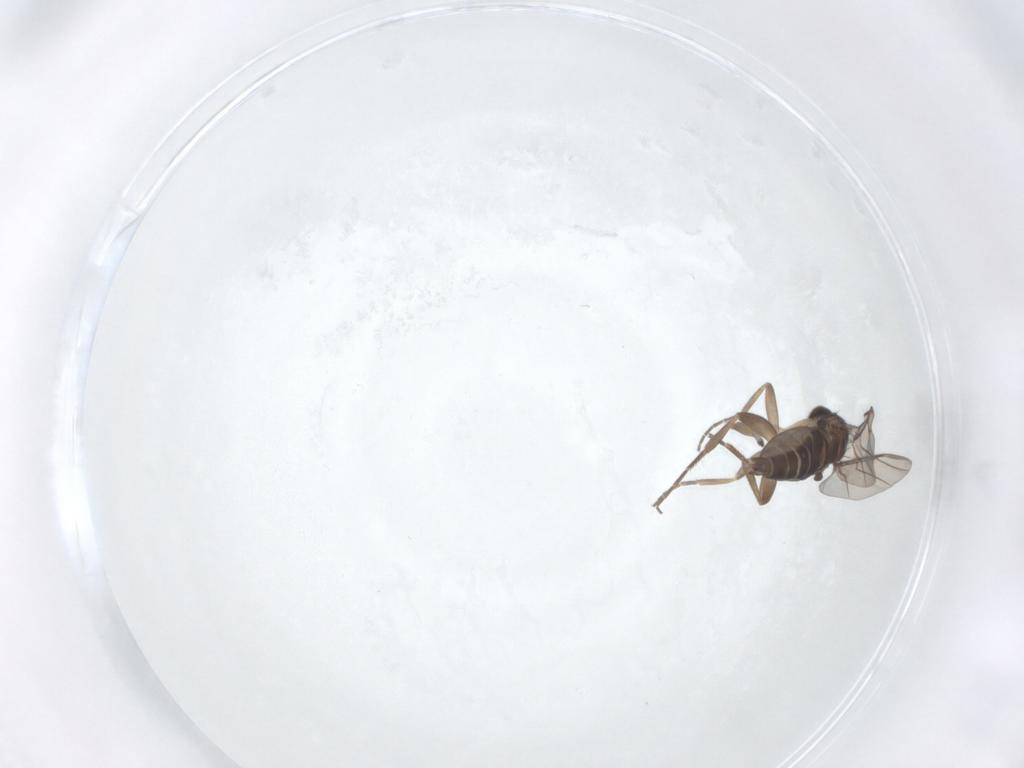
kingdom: Animalia
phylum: Arthropoda
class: Insecta
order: Diptera
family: Phoridae
